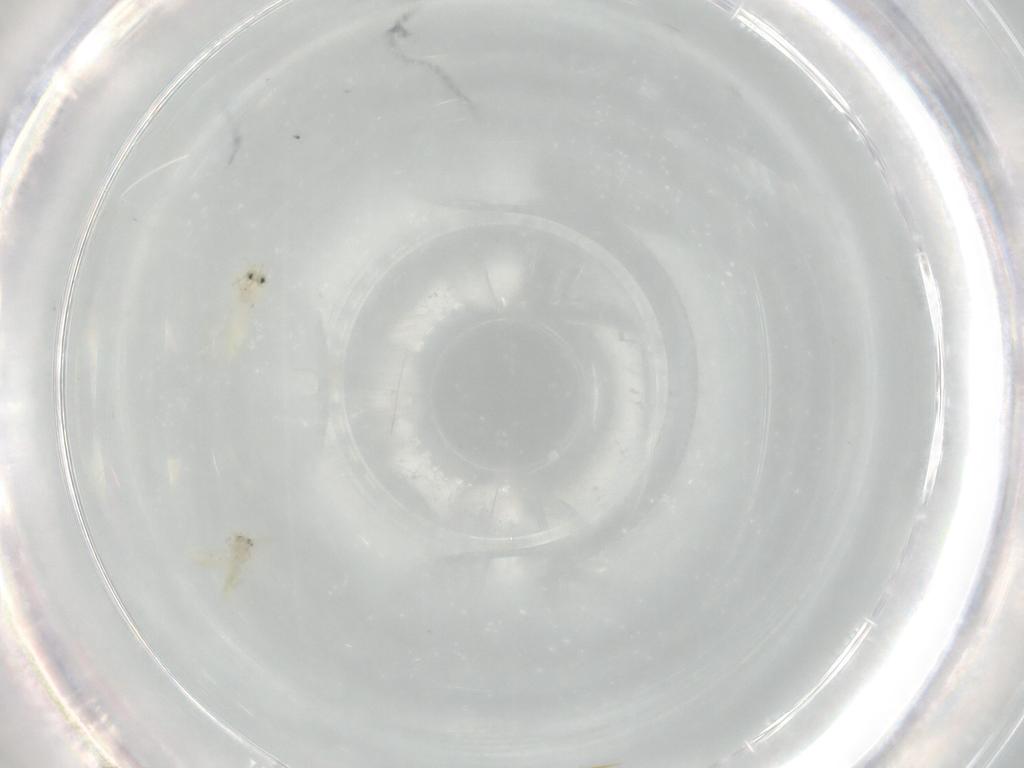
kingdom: Animalia
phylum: Arthropoda
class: Insecta
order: Hemiptera
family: Aleyrodidae
